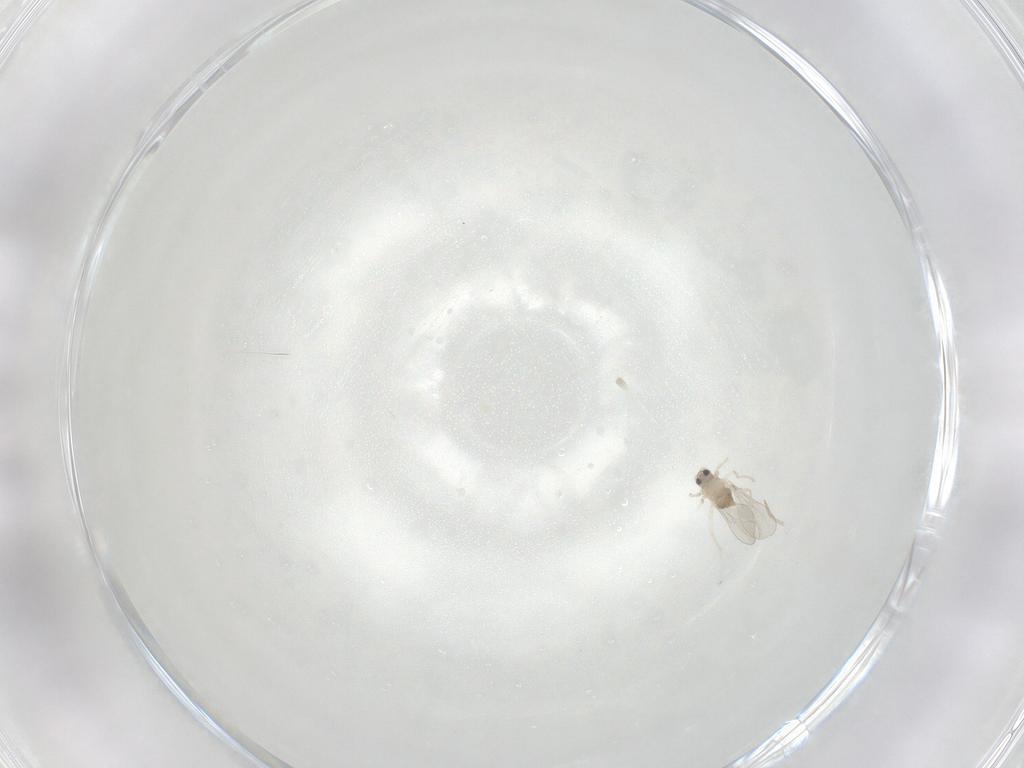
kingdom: Animalia
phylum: Arthropoda
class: Insecta
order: Diptera
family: Cecidomyiidae
